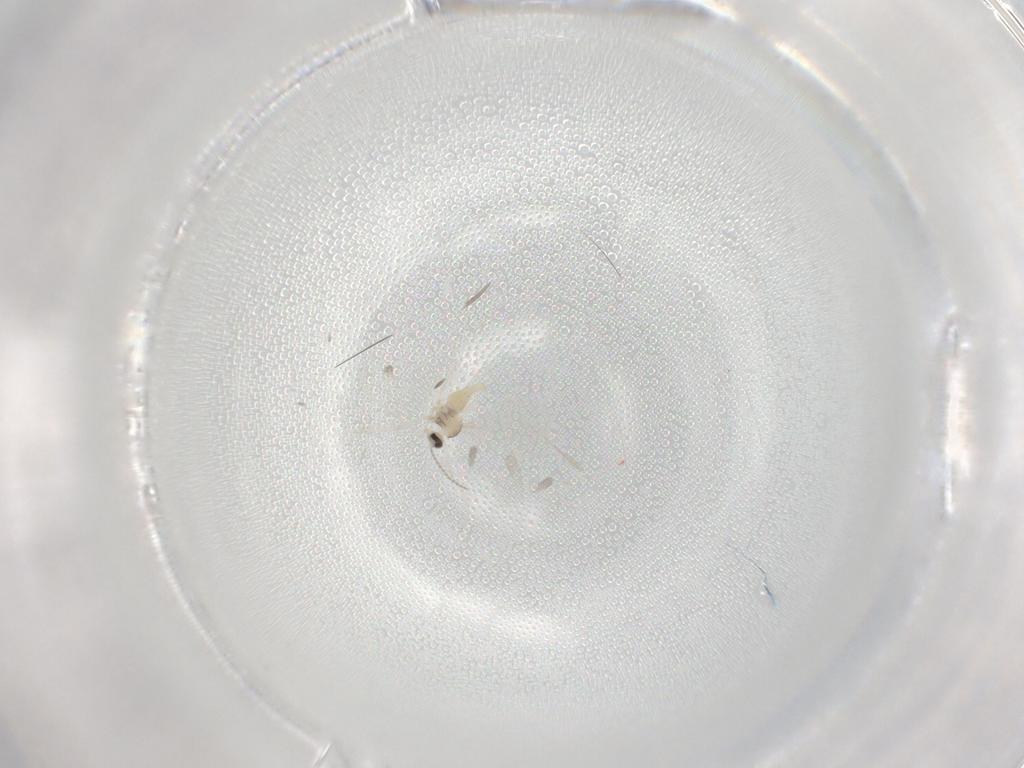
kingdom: Animalia
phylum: Arthropoda
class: Insecta
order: Diptera
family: Cecidomyiidae
